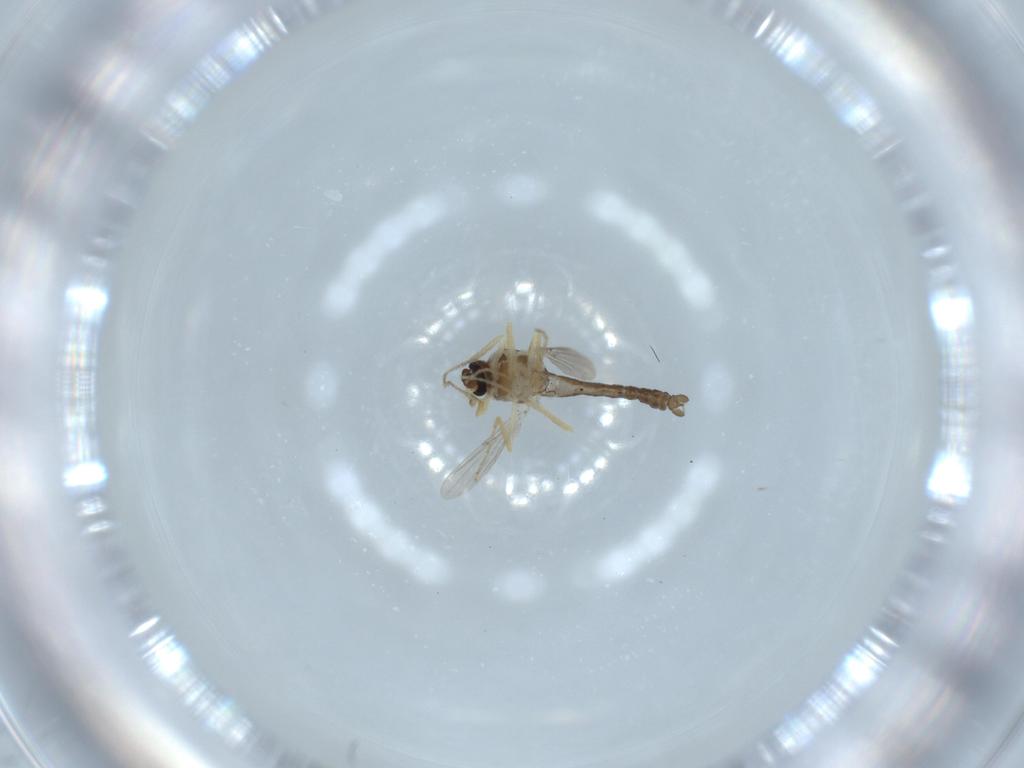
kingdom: Animalia
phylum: Arthropoda
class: Insecta
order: Diptera
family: Ceratopogonidae
